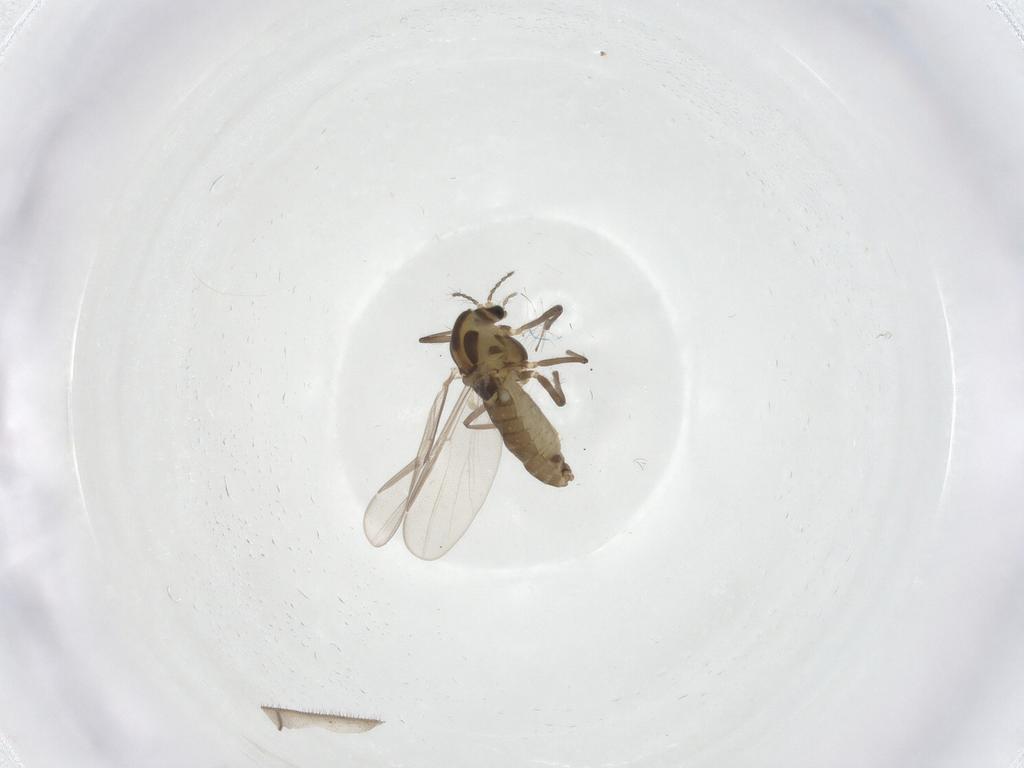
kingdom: Animalia
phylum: Arthropoda
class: Insecta
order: Diptera
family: Chironomidae
